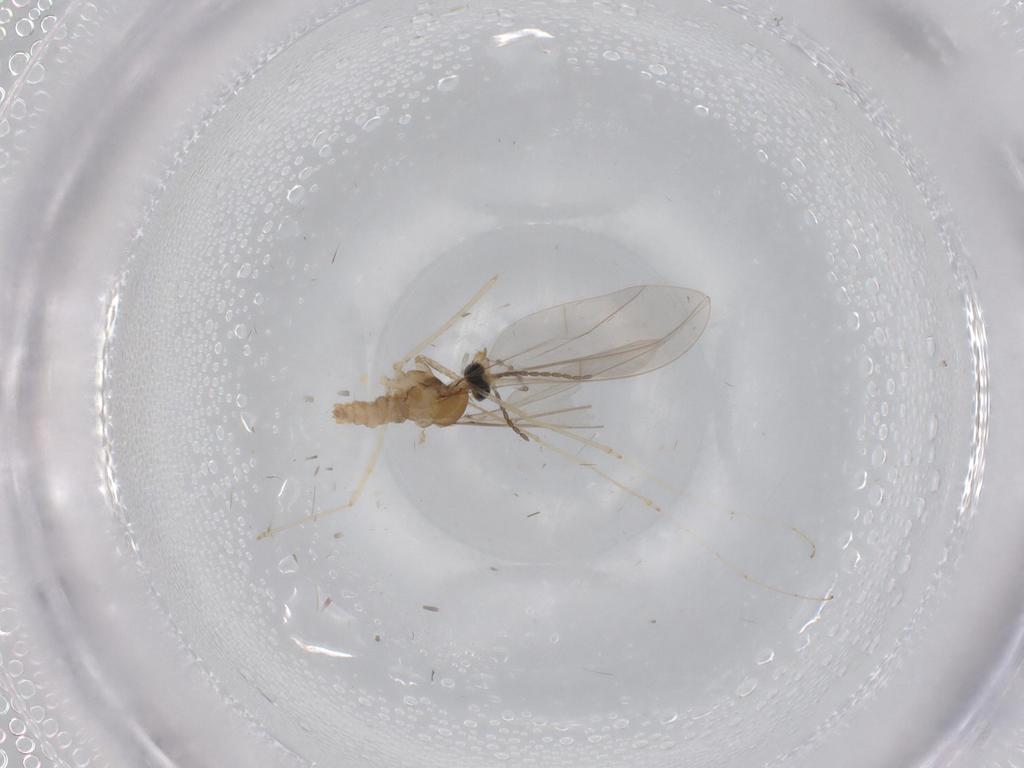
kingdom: Animalia
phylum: Arthropoda
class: Insecta
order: Diptera
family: Cecidomyiidae
